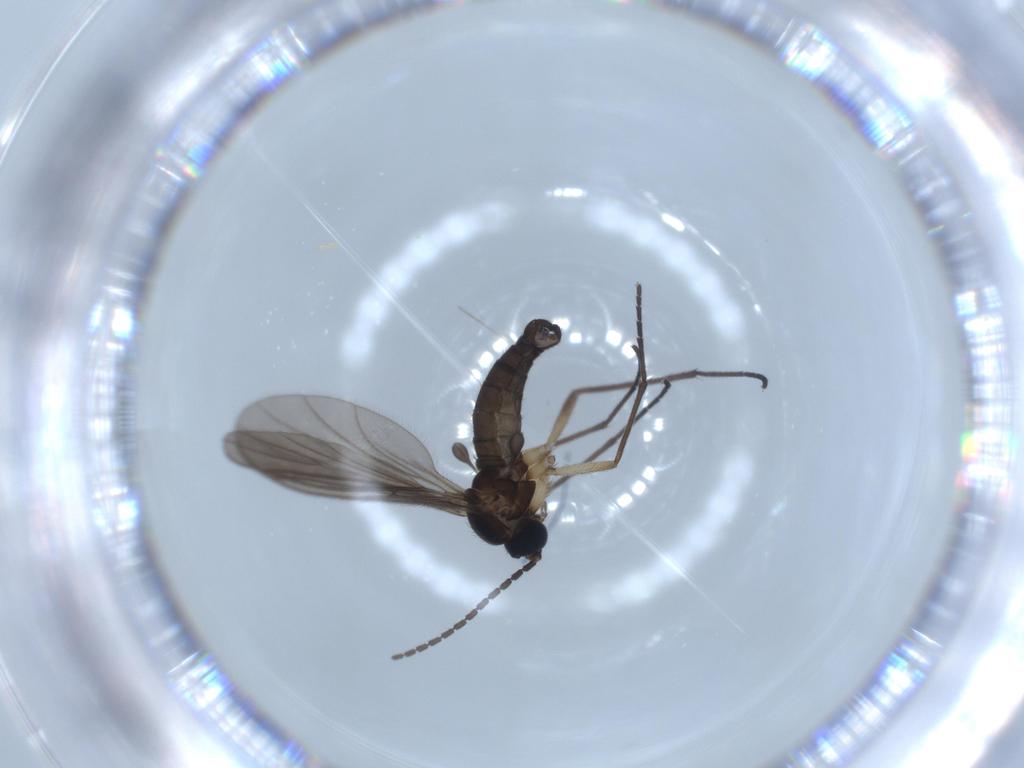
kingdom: Animalia
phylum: Arthropoda
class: Insecta
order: Diptera
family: Sciaridae
